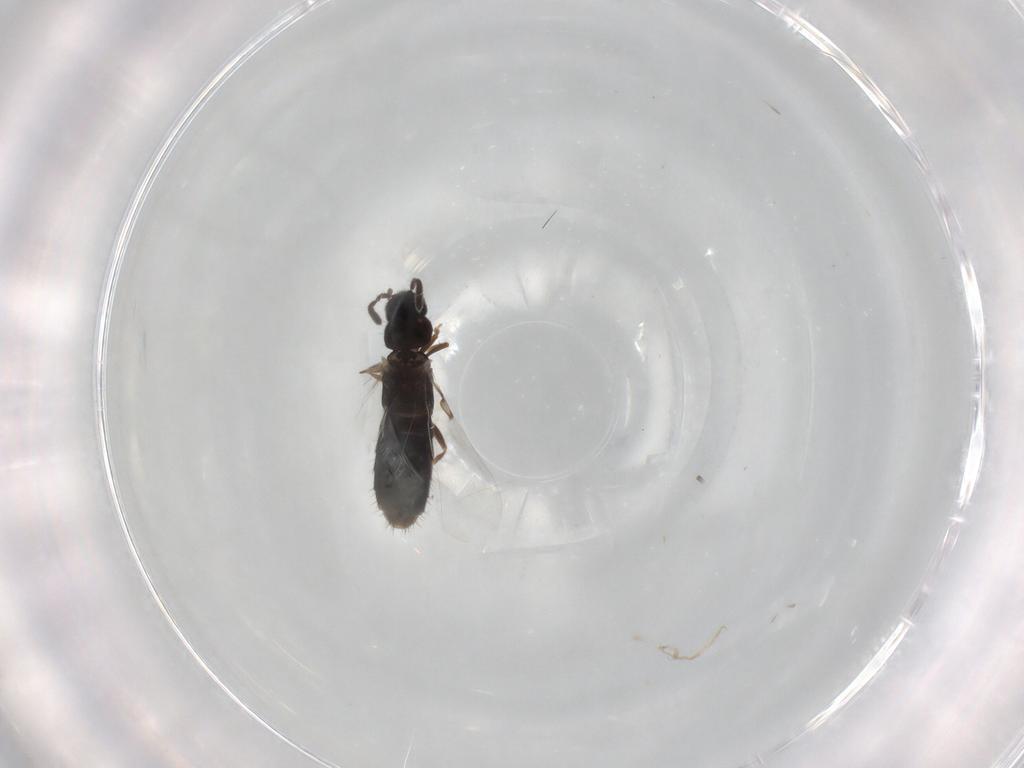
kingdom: Animalia
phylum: Arthropoda
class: Insecta
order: Coleoptera
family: Staphylinidae
